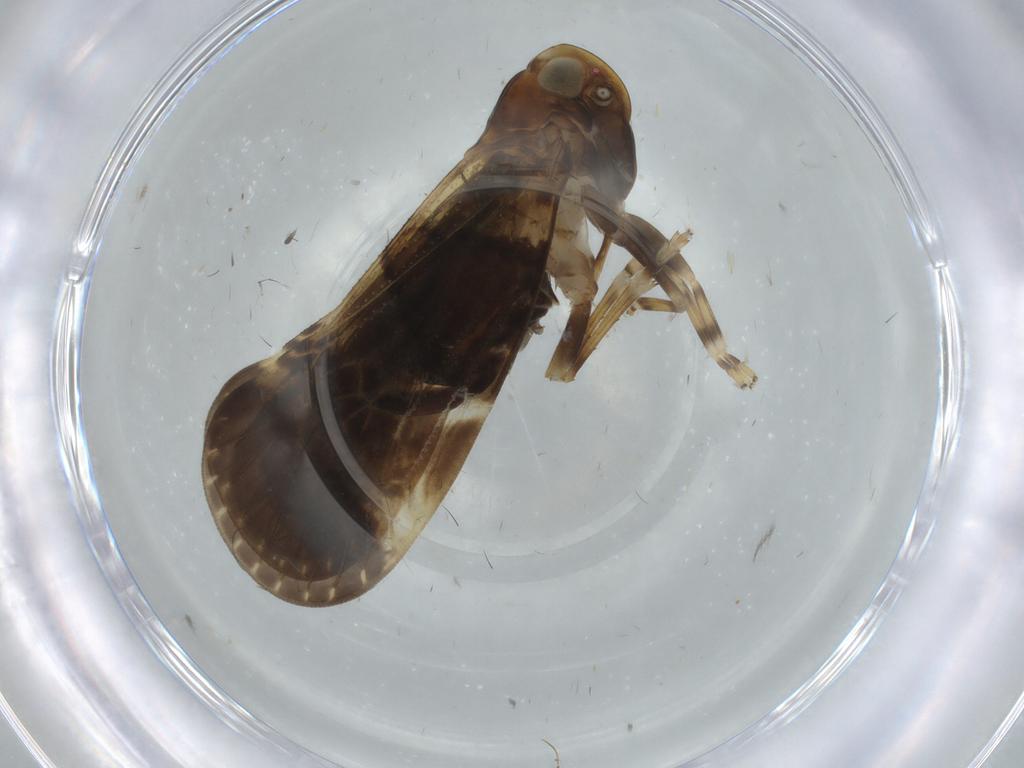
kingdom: Animalia
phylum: Arthropoda
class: Insecta
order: Hemiptera
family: Cixiidae
